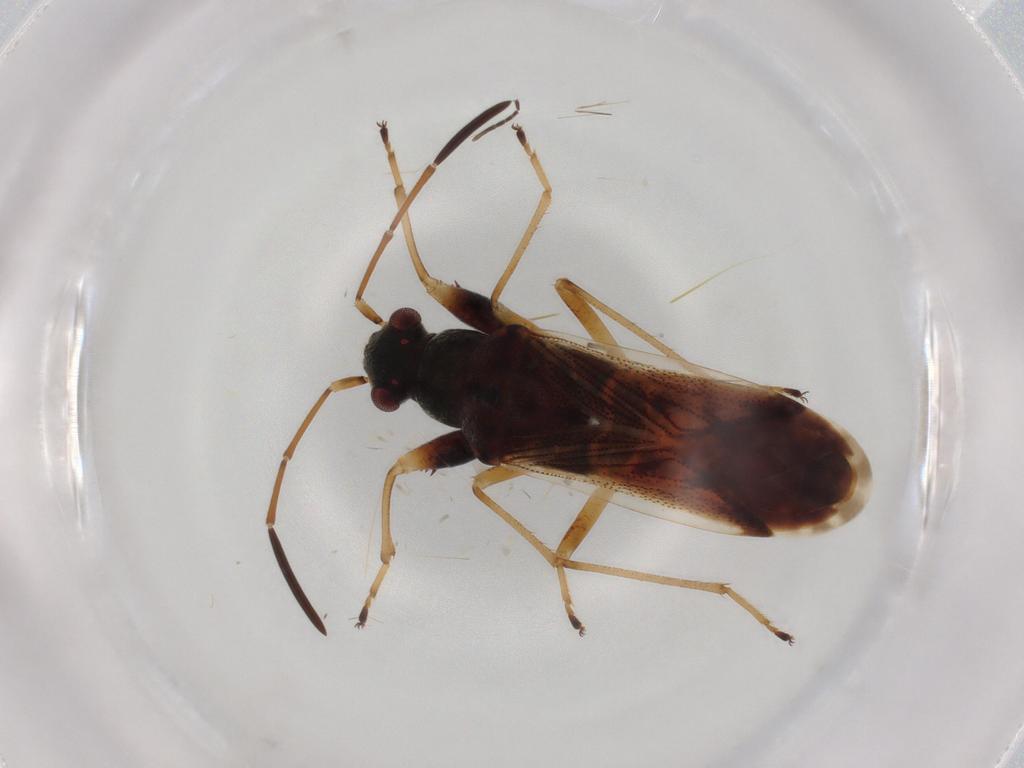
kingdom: Animalia
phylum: Arthropoda
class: Insecta
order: Hemiptera
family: Rhyparochromidae
